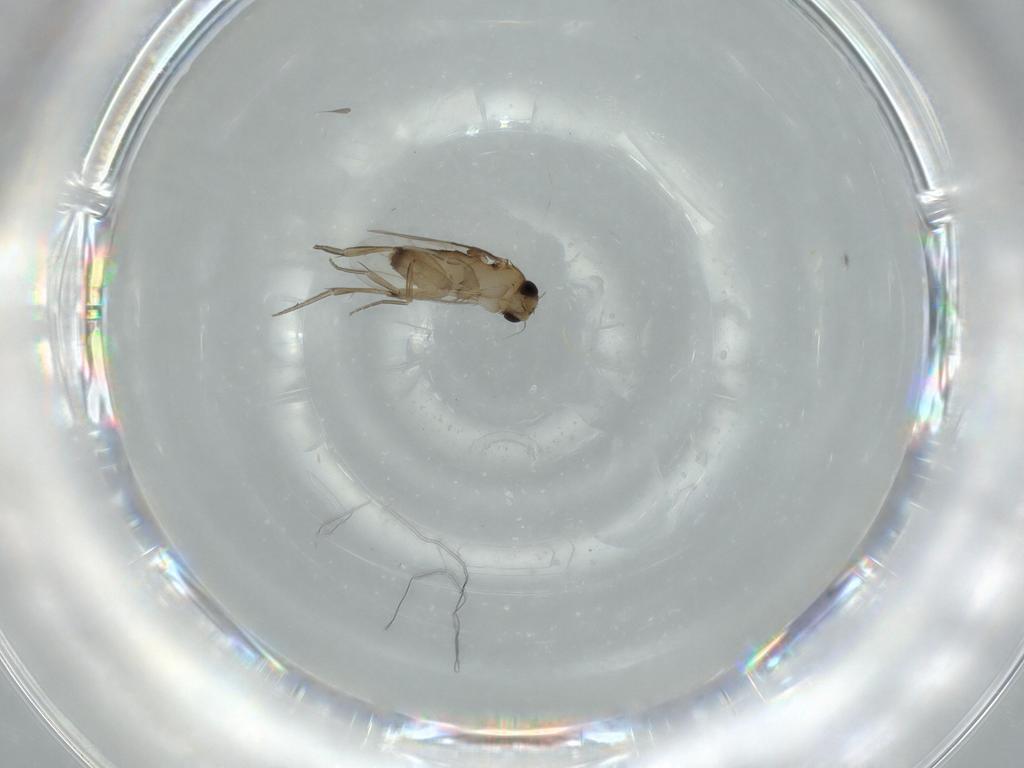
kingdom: Animalia
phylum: Arthropoda
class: Insecta
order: Diptera
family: Phoridae
